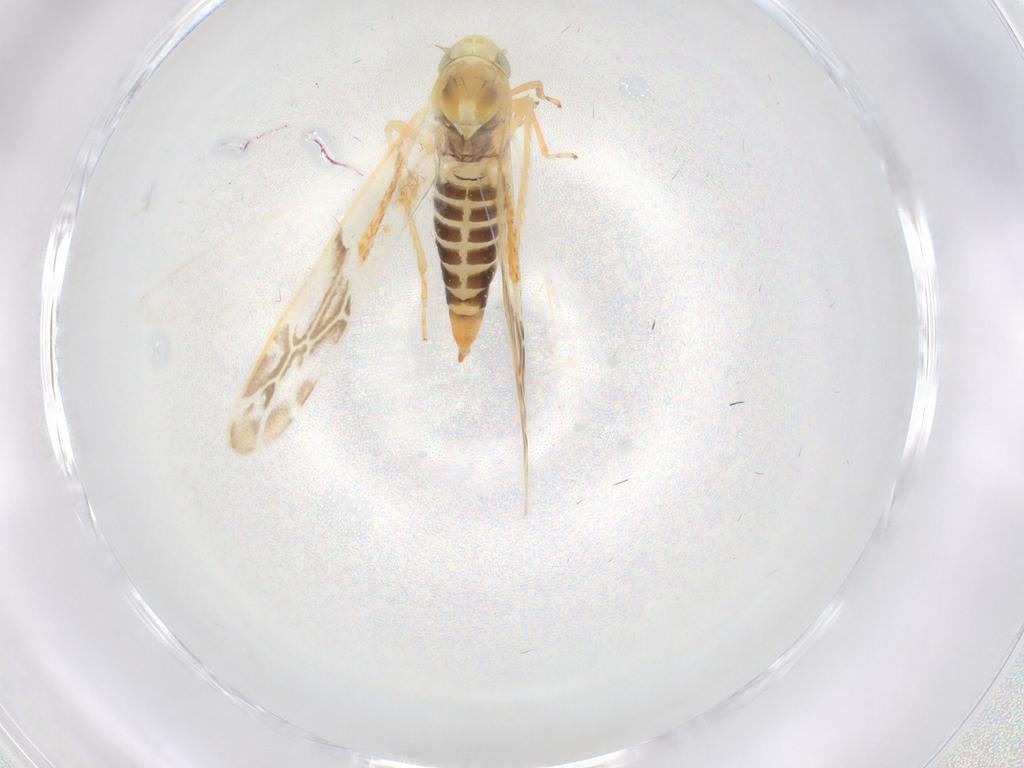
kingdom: Animalia
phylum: Arthropoda
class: Insecta
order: Hemiptera
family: Cicadellidae
